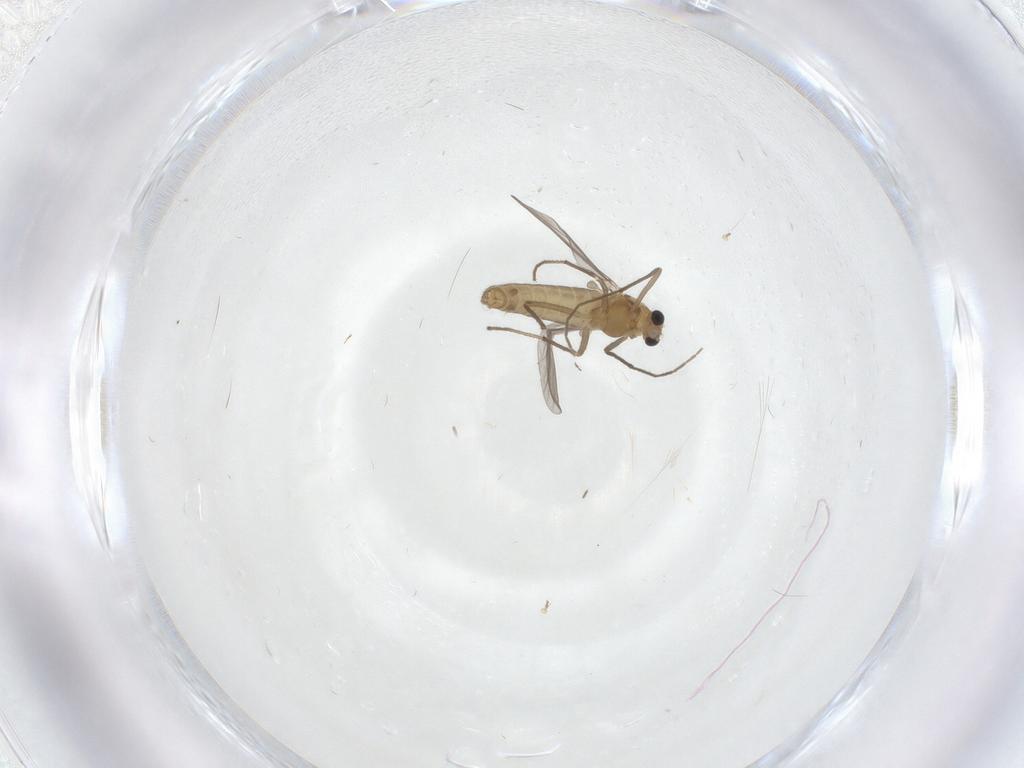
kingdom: Animalia
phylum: Arthropoda
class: Insecta
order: Diptera
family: Chironomidae
